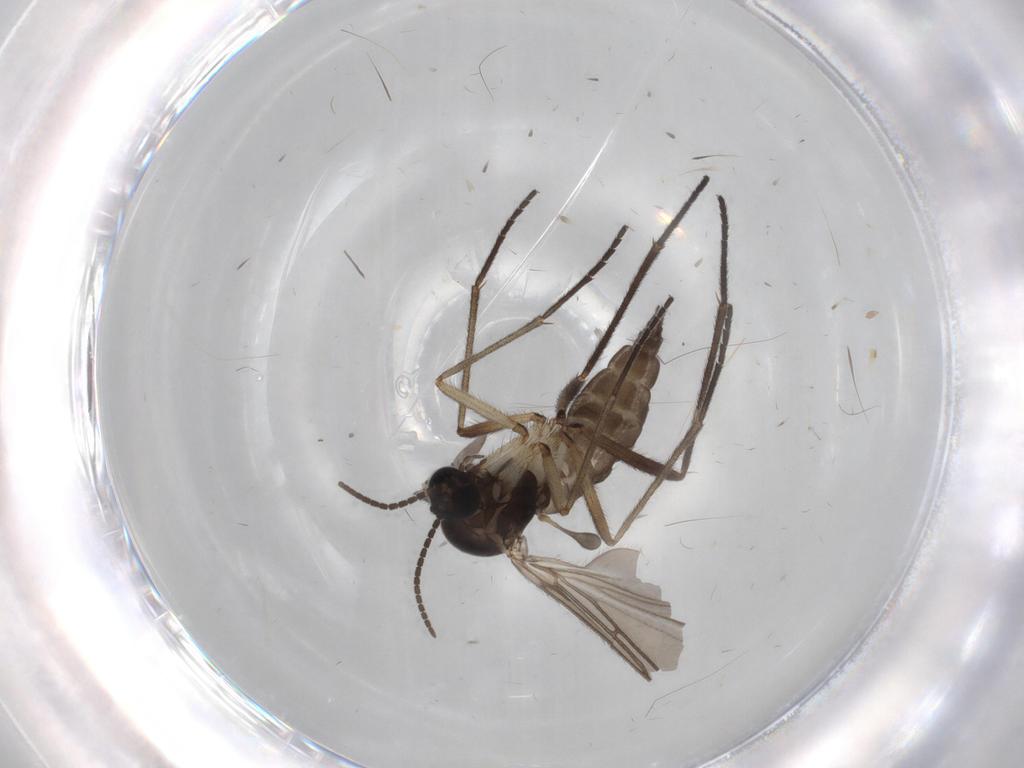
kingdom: Animalia
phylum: Arthropoda
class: Insecta
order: Diptera
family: Sciaridae
